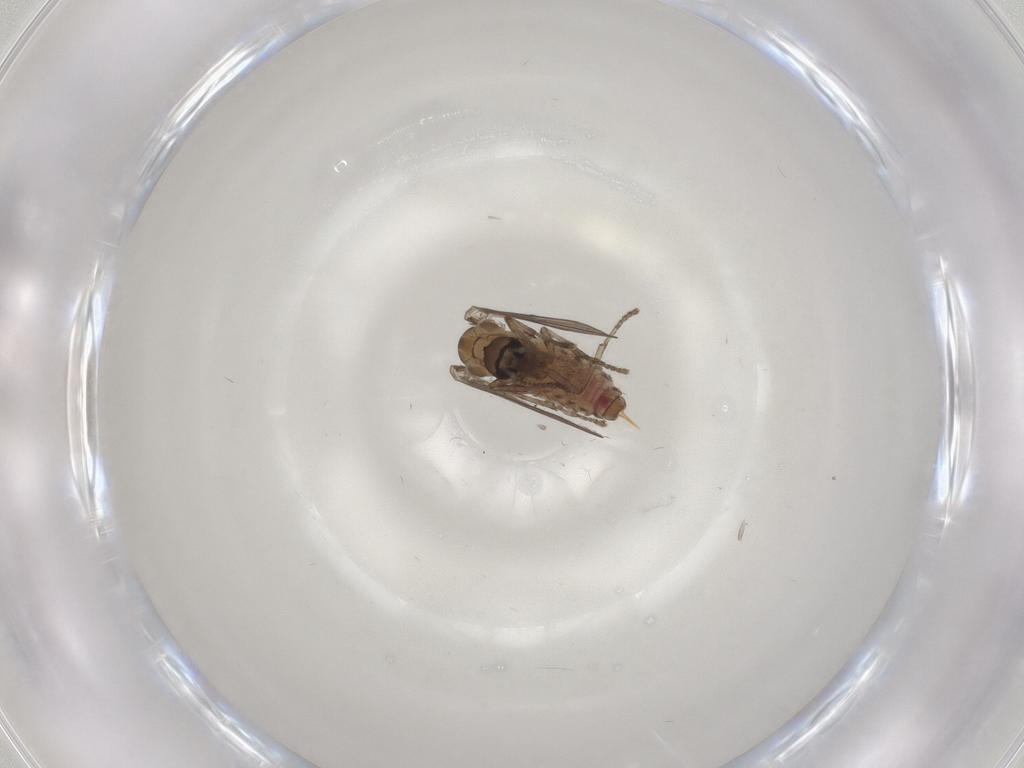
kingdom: Animalia
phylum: Arthropoda
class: Insecta
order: Diptera
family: Psychodidae
